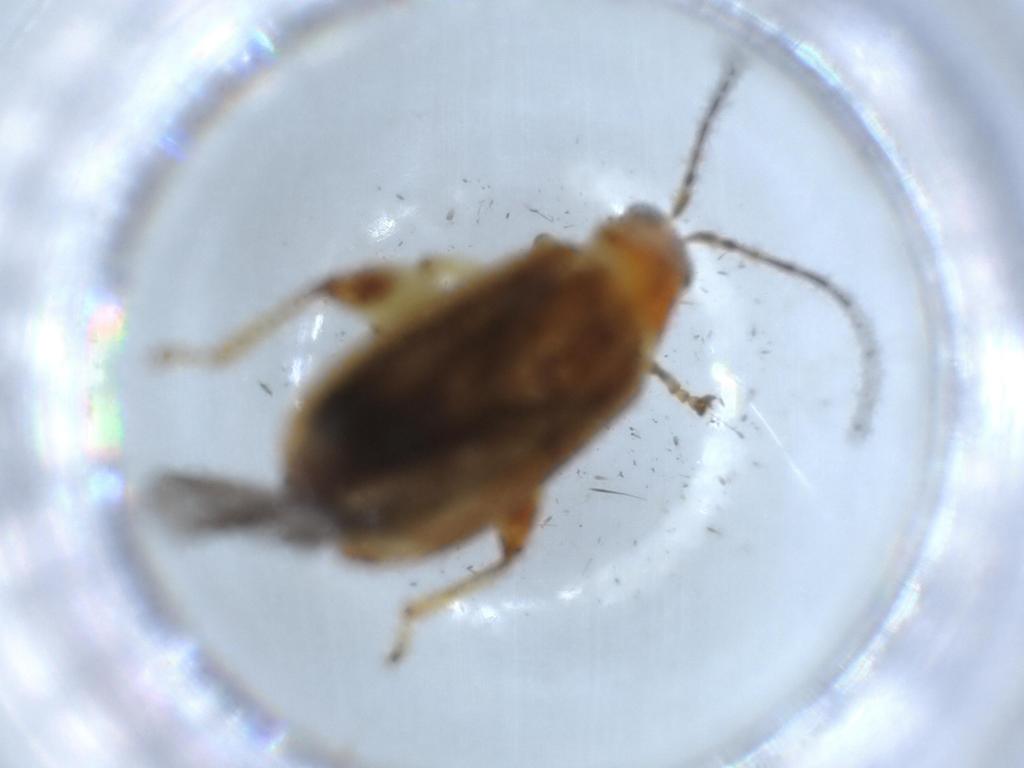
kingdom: Animalia
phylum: Arthropoda
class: Insecta
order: Coleoptera
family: Chrysomelidae
